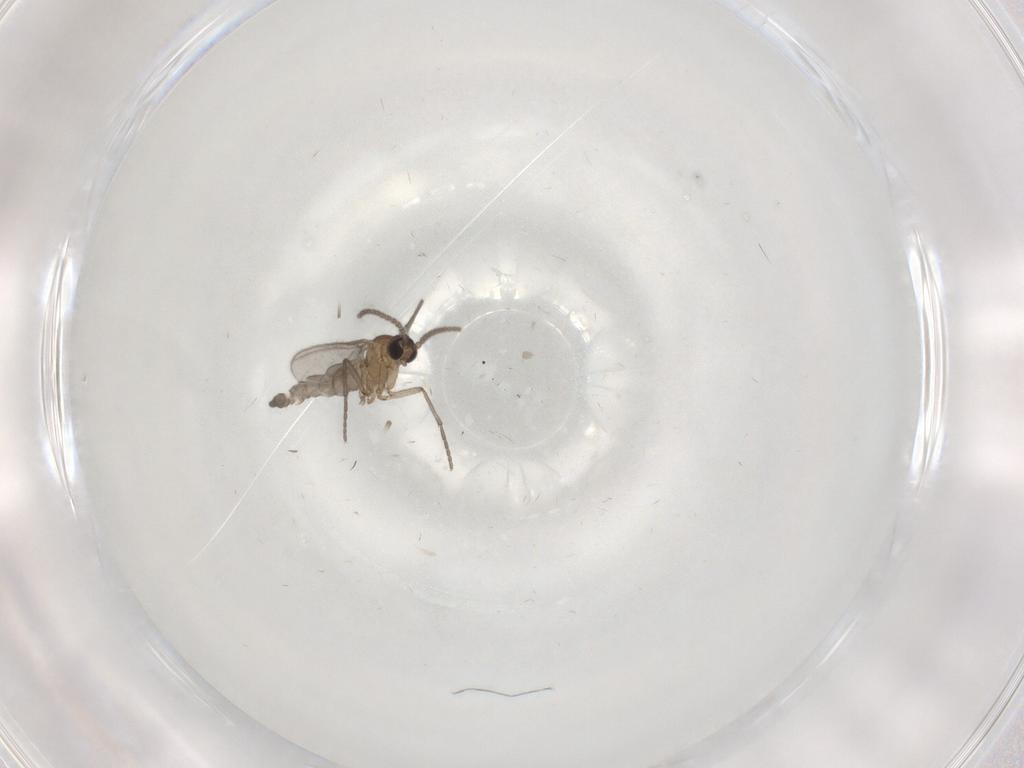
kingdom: Animalia
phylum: Arthropoda
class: Insecta
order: Diptera
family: Sciaridae
